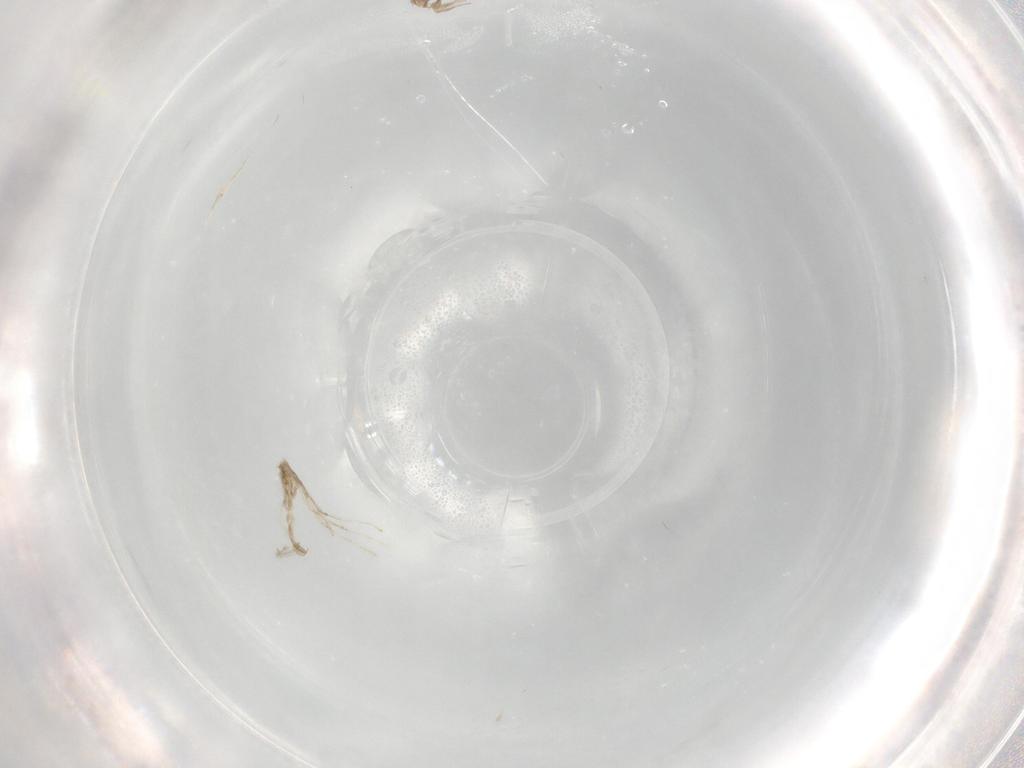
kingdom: Animalia
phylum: Arthropoda
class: Insecta
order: Diptera
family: Cecidomyiidae
